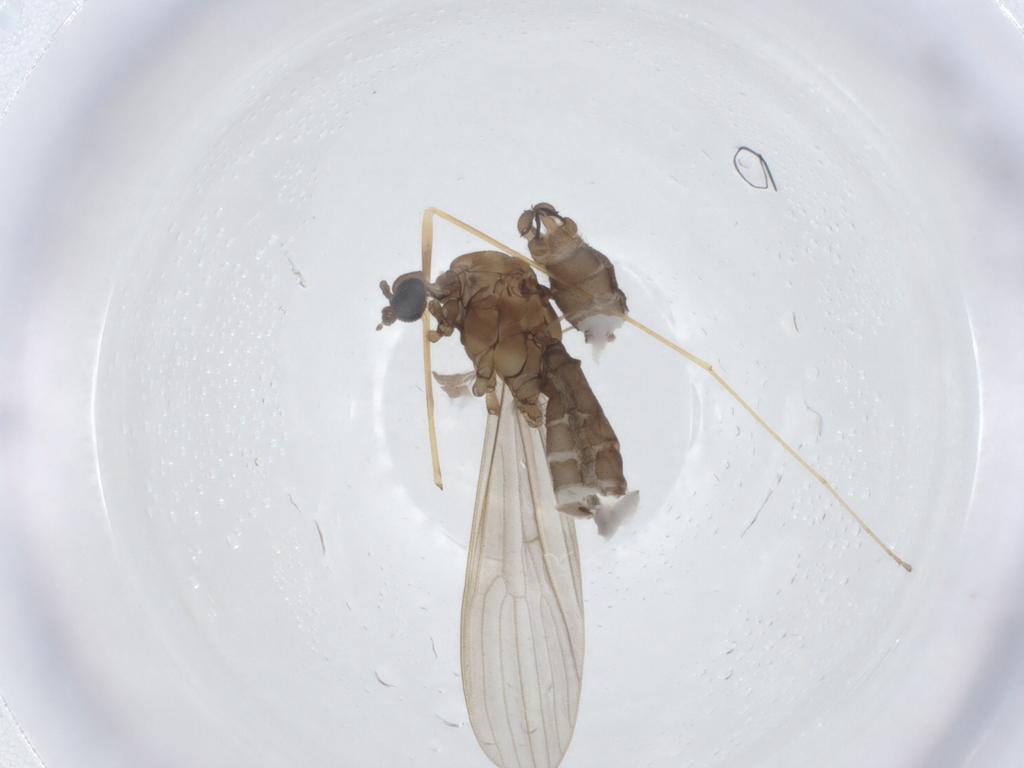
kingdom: Animalia
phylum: Arthropoda
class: Insecta
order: Diptera
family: Limoniidae
